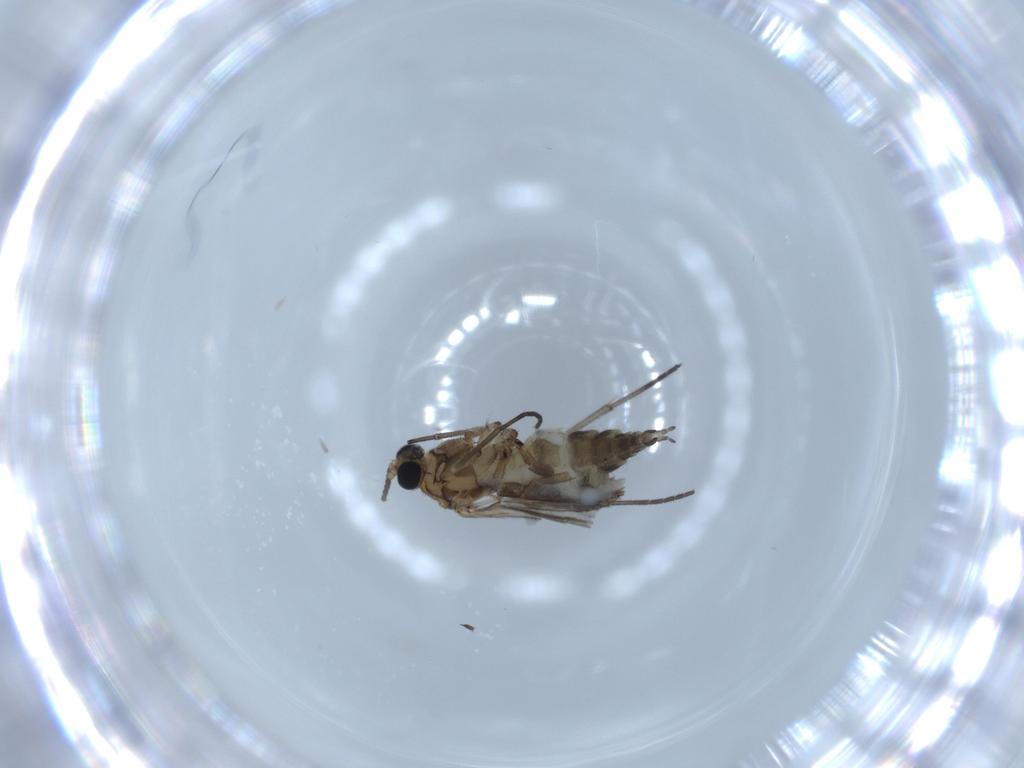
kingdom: Animalia
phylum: Arthropoda
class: Insecta
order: Diptera
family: Sciaridae
